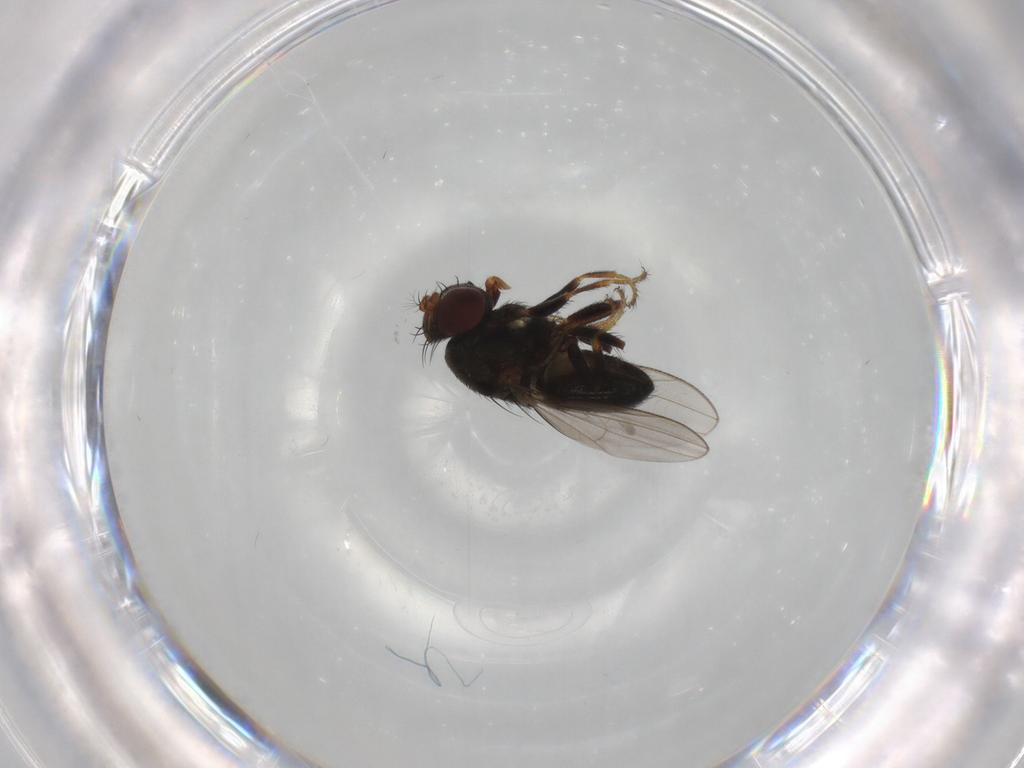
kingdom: Animalia
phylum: Arthropoda
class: Insecta
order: Diptera
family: Ephydridae
